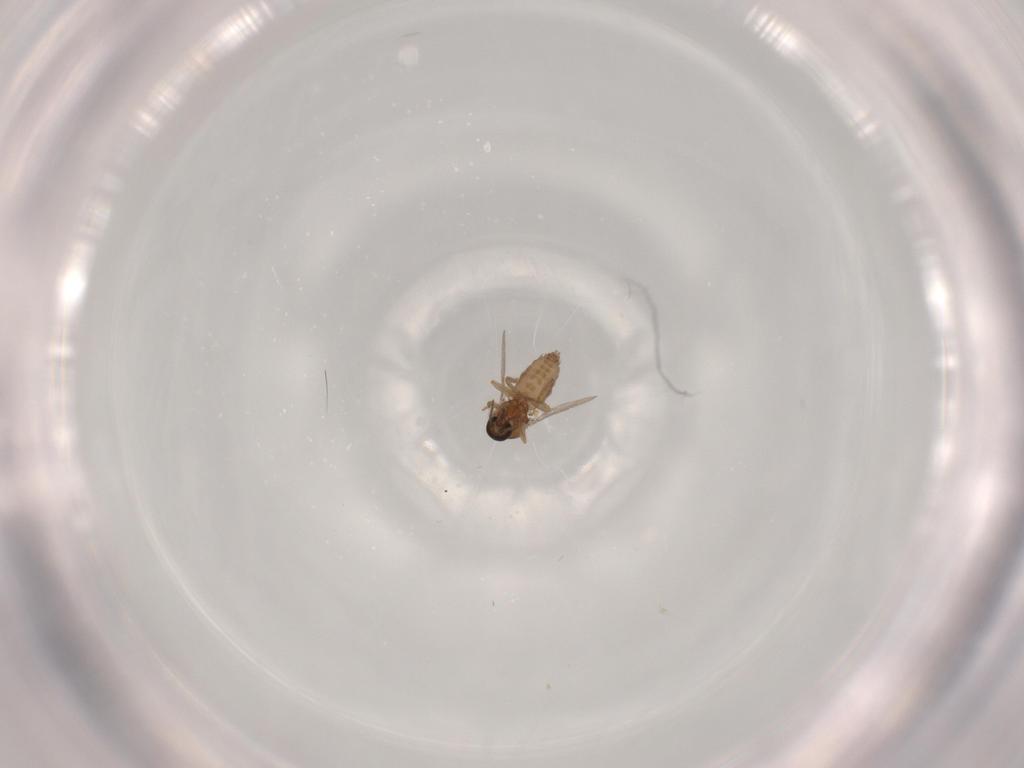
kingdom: Animalia
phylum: Arthropoda
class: Insecta
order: Diptera
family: Ceratopogonidae
